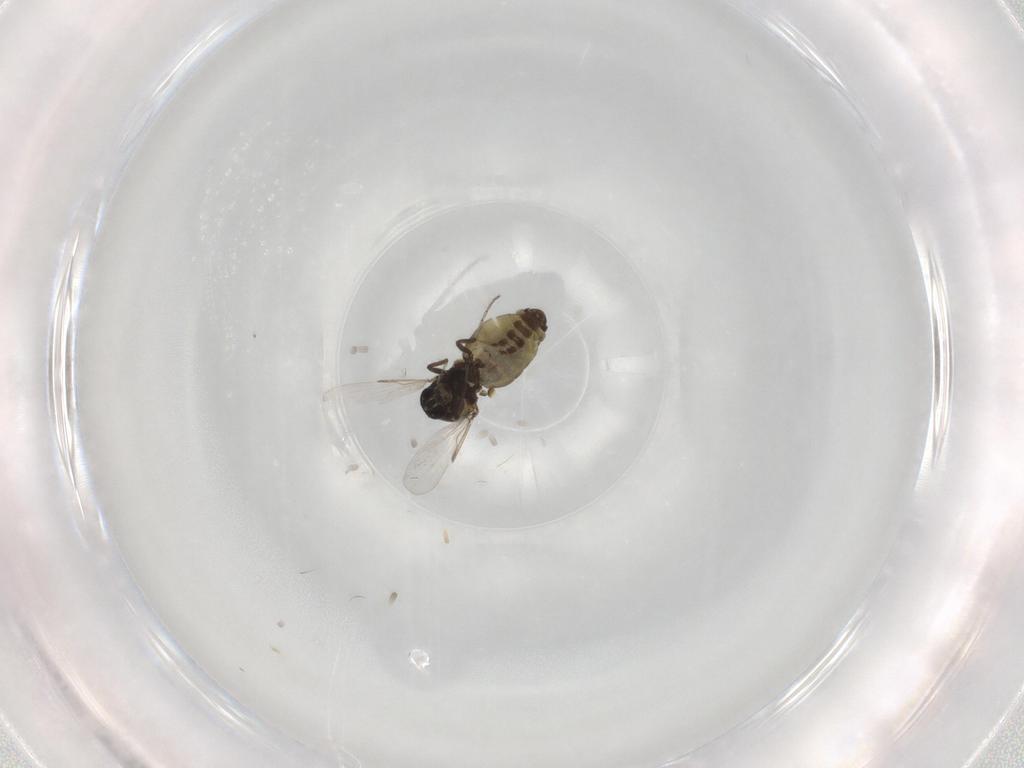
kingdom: Animalia
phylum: Arthropoda
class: Insecta
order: Diptera
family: Ceratopogonidae
